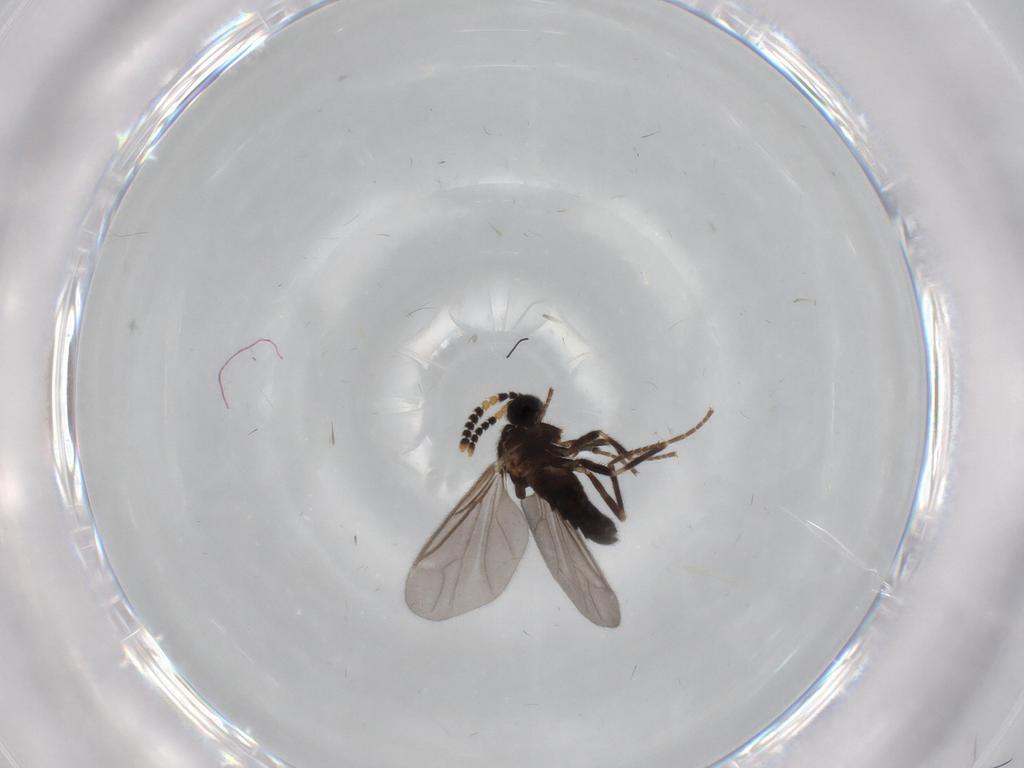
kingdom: Animalia
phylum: Arthropoda
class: Insecta
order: Diptera
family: Scatopsidae
